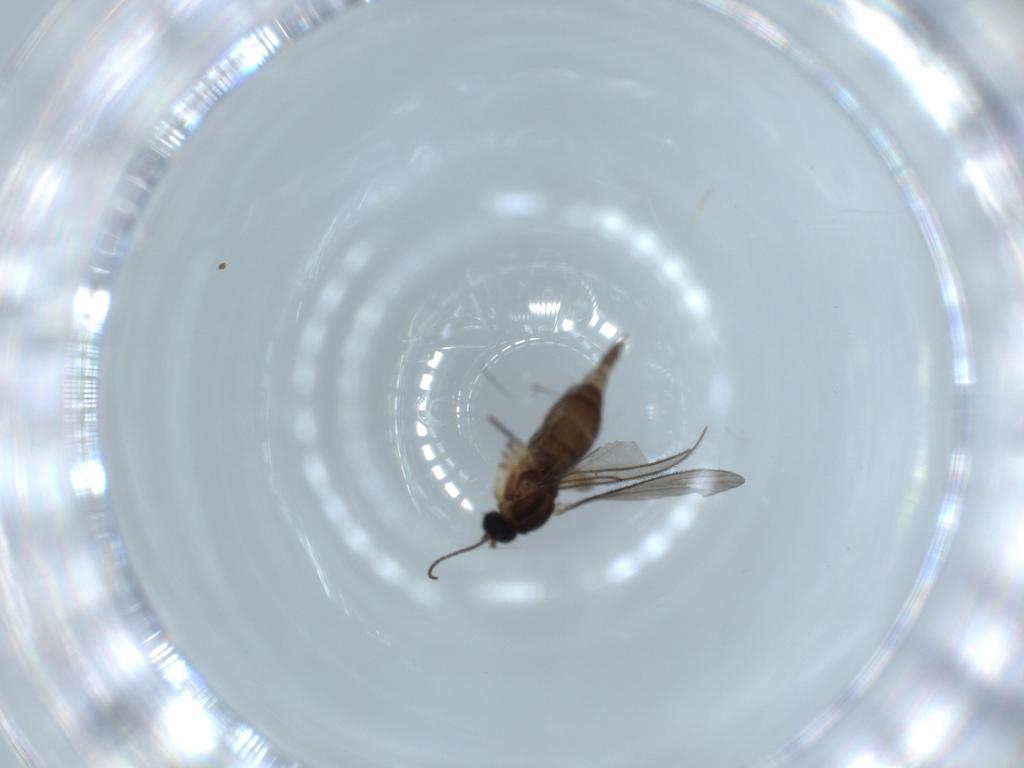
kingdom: Animalia
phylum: Arthropoda
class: Insecta
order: Diptera
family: Sciaridae
